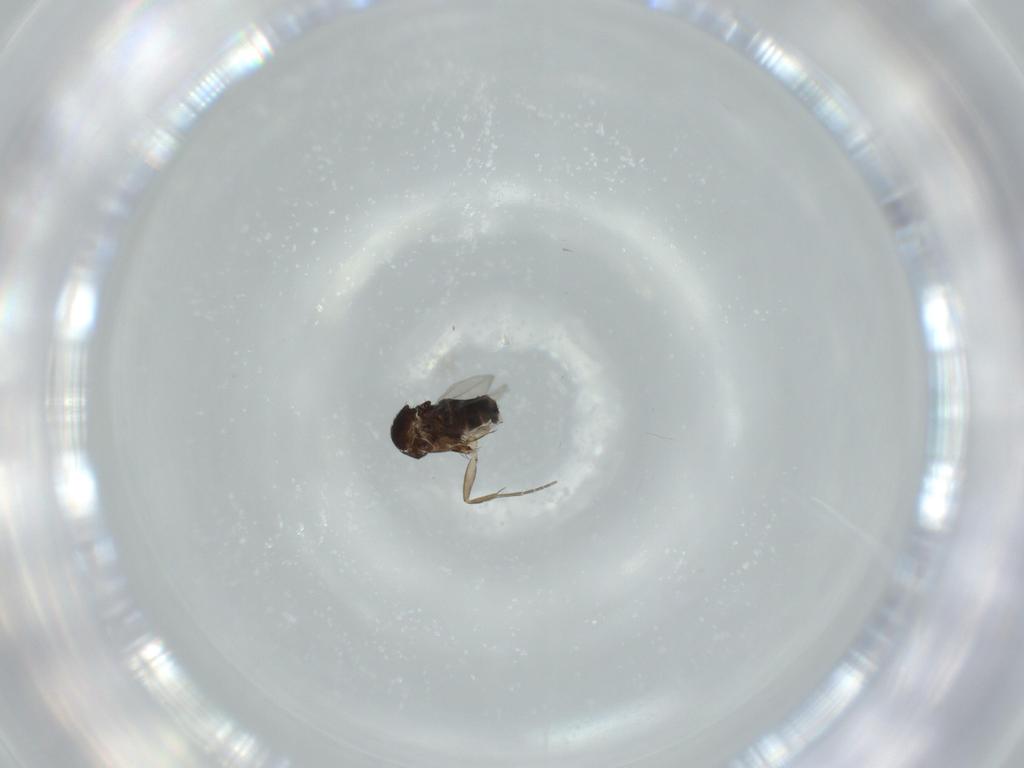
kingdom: Animalia
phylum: Arthropoda
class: Insecta
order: Diptera
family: Phoridae
